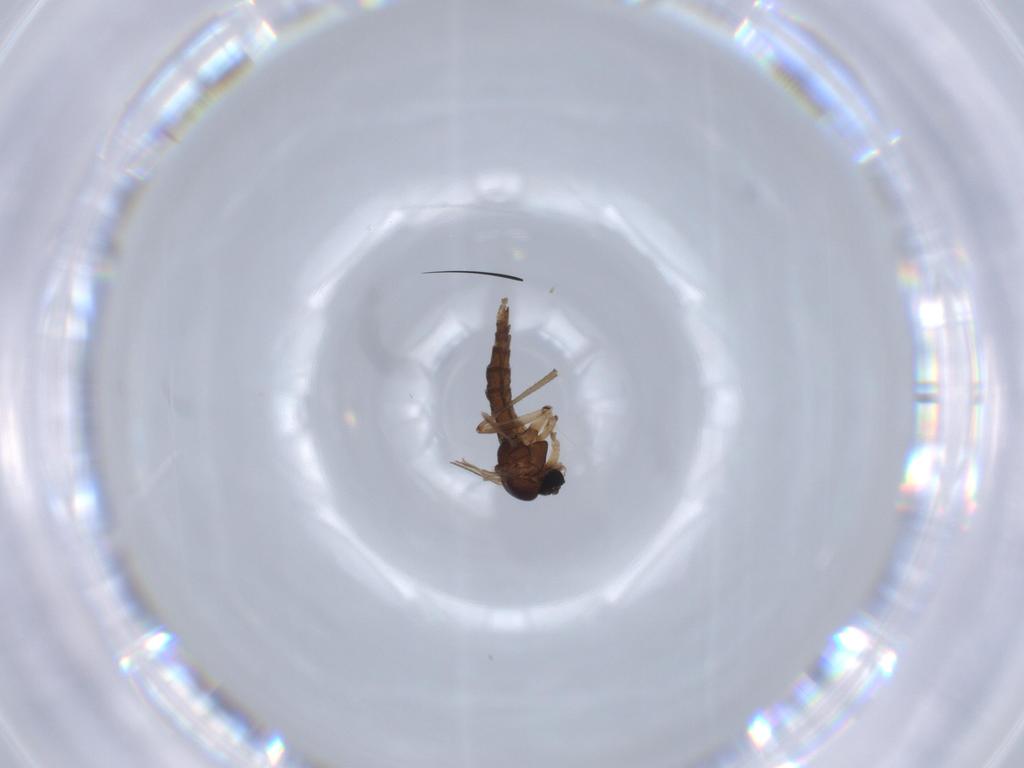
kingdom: Animalia
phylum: Arthropoda
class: Insecta
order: Diptera
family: Sciaridae
